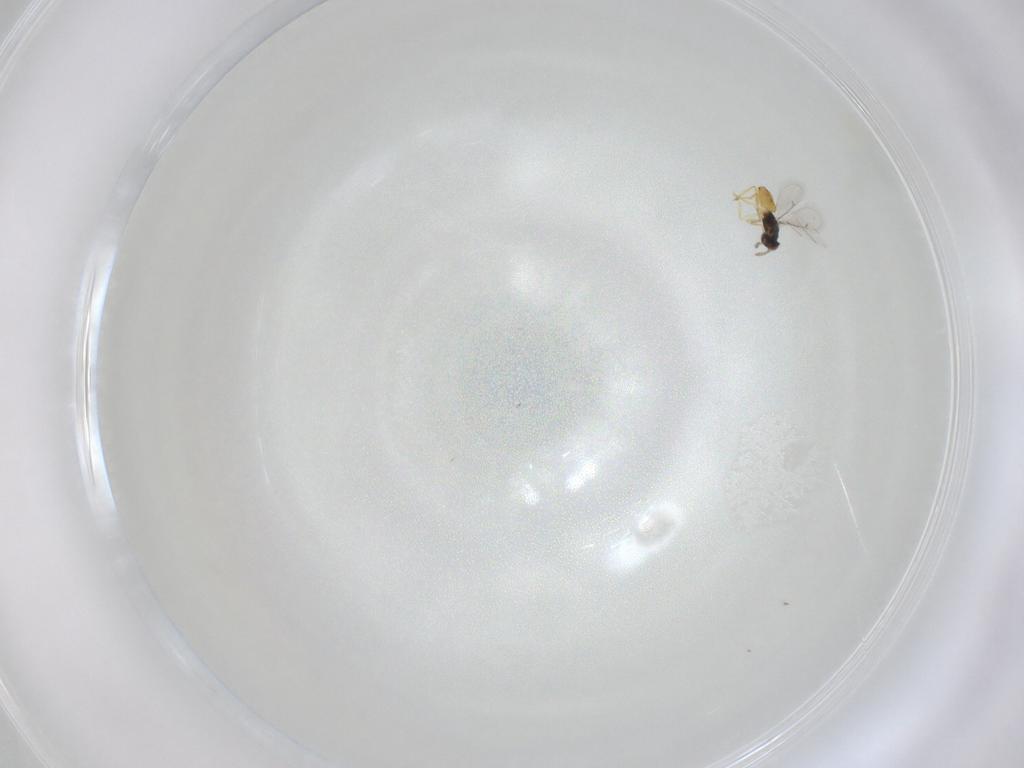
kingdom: Animalia
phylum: Arthropoda
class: Insecta
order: Hymenoptera
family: Eulophidae
